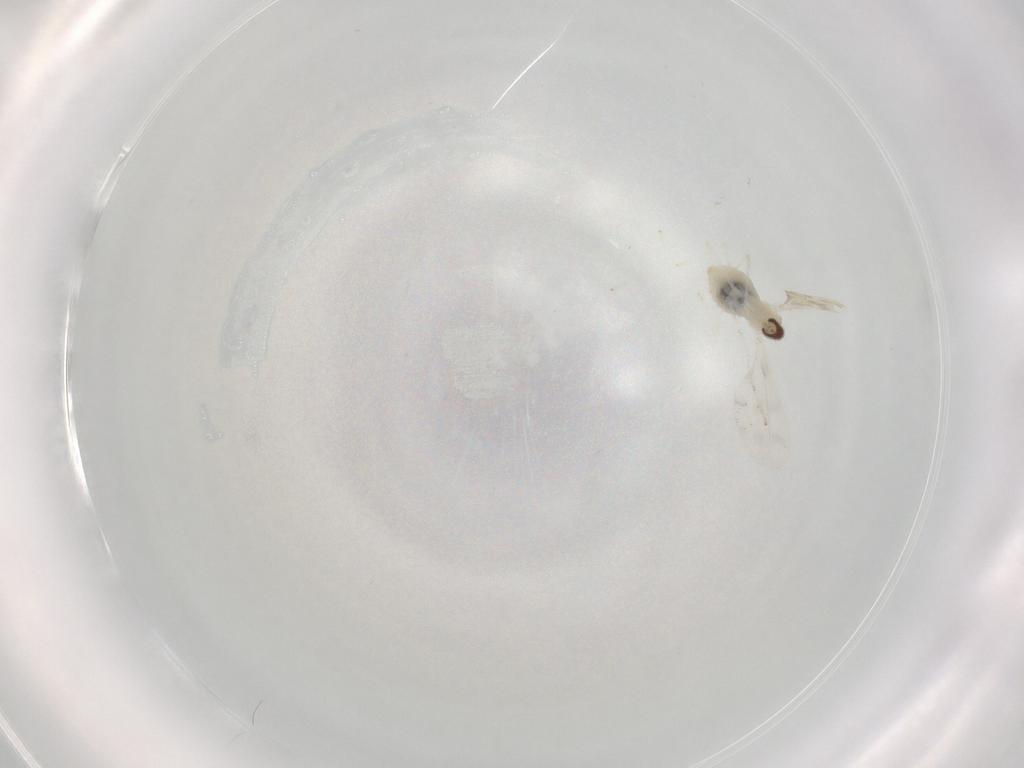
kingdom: Animalia
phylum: Arthropoda
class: Insecta
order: Diptera
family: Cecidomyiidae
